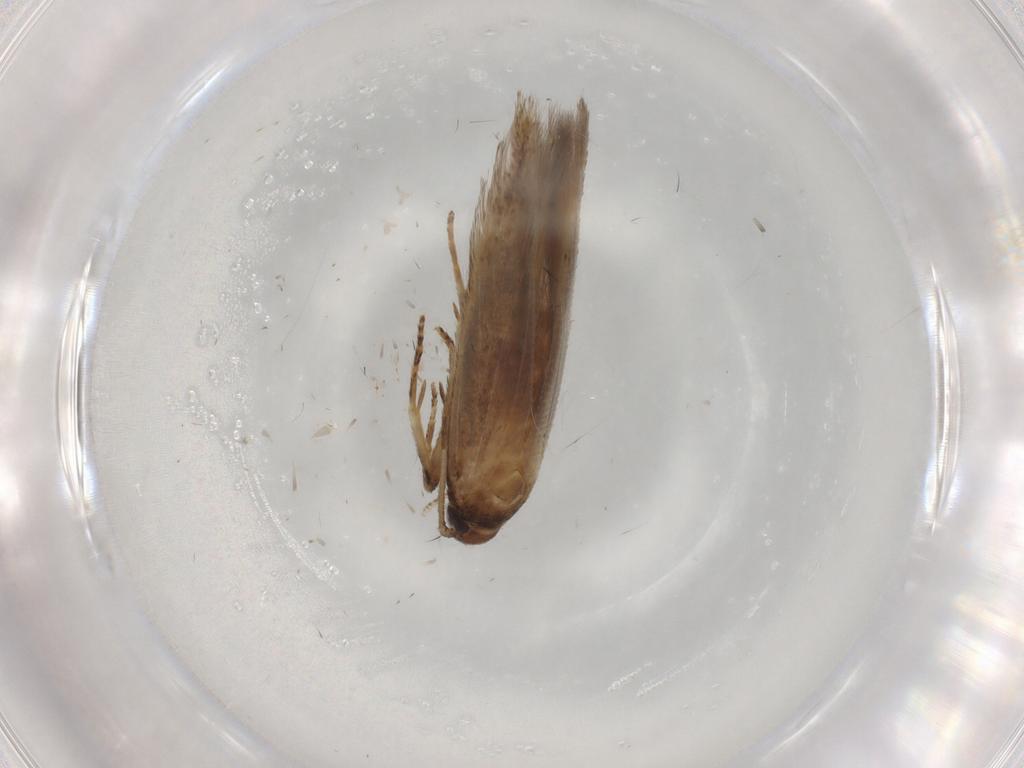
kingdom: Animalia
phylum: Arthropoda
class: Insecta
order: Lepidoptera
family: Cosmopterigidae
